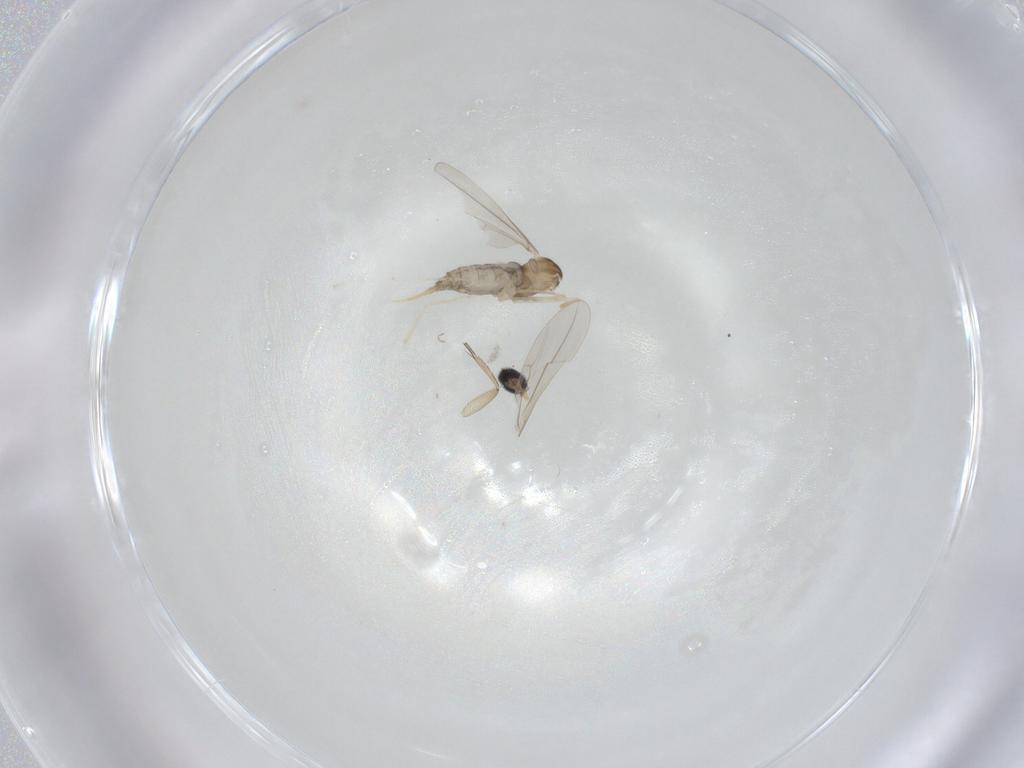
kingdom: Animalia
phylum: Arthropoda
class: Insecta
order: Diptera
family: Cecidomyiidae
